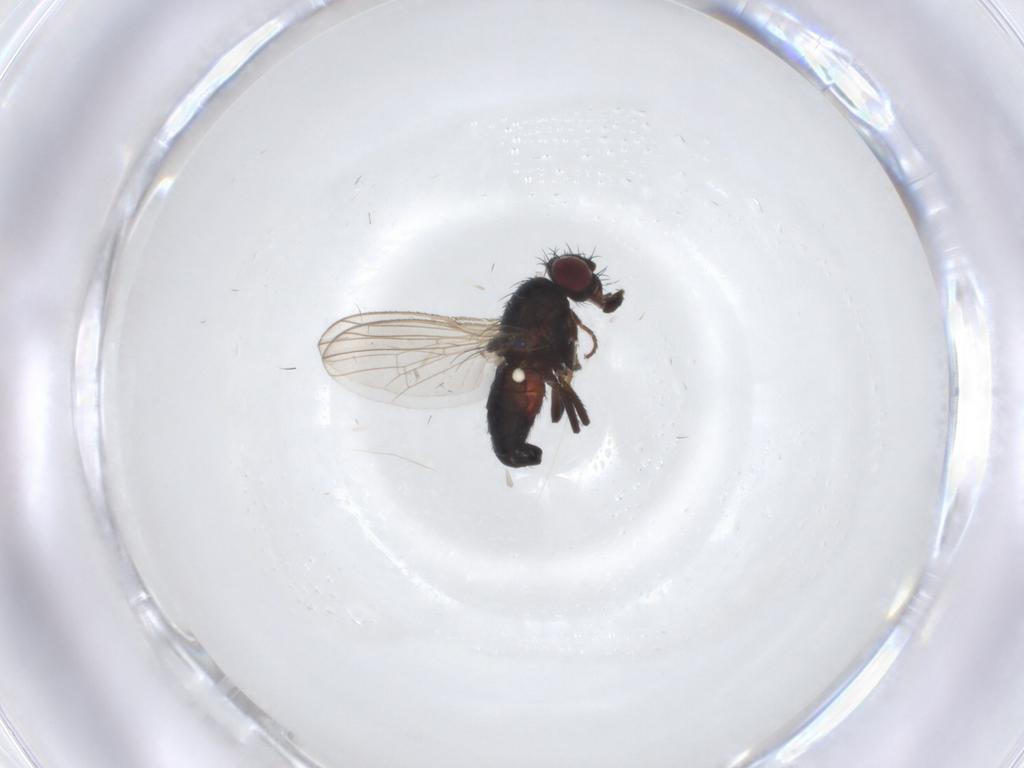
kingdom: Animalia
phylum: Arthropoda
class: Insecta
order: Diptera
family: Carnidae
